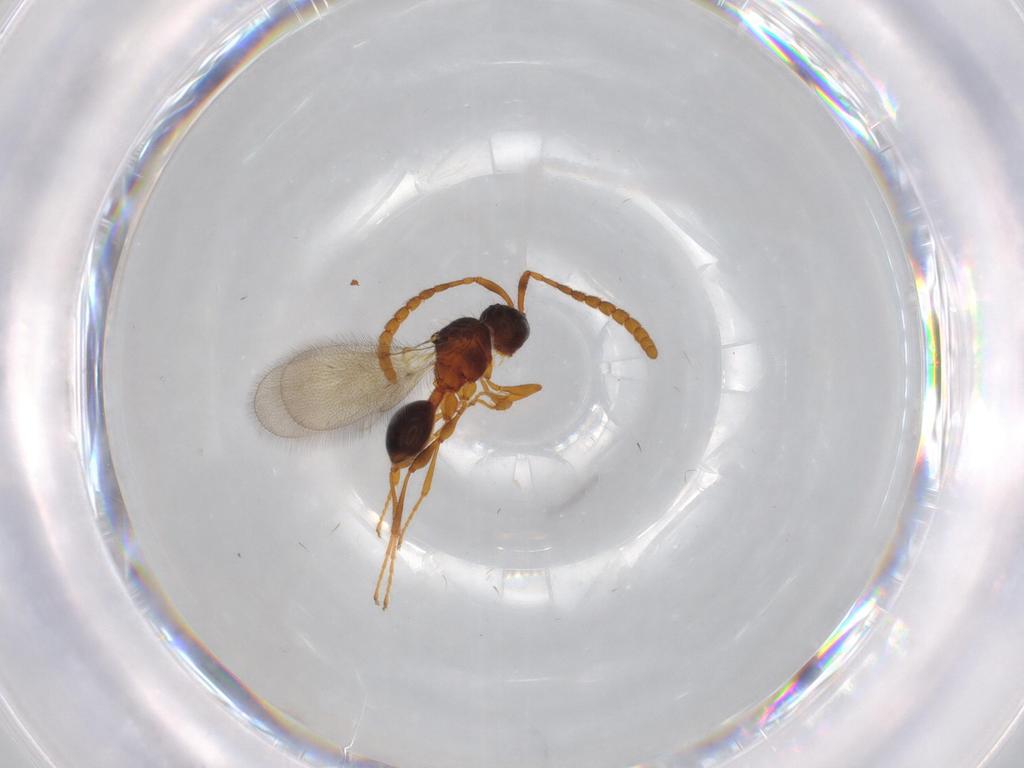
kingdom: Animalia
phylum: Arthropoda
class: Insecta
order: Hymenoptera
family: Diapriidae
